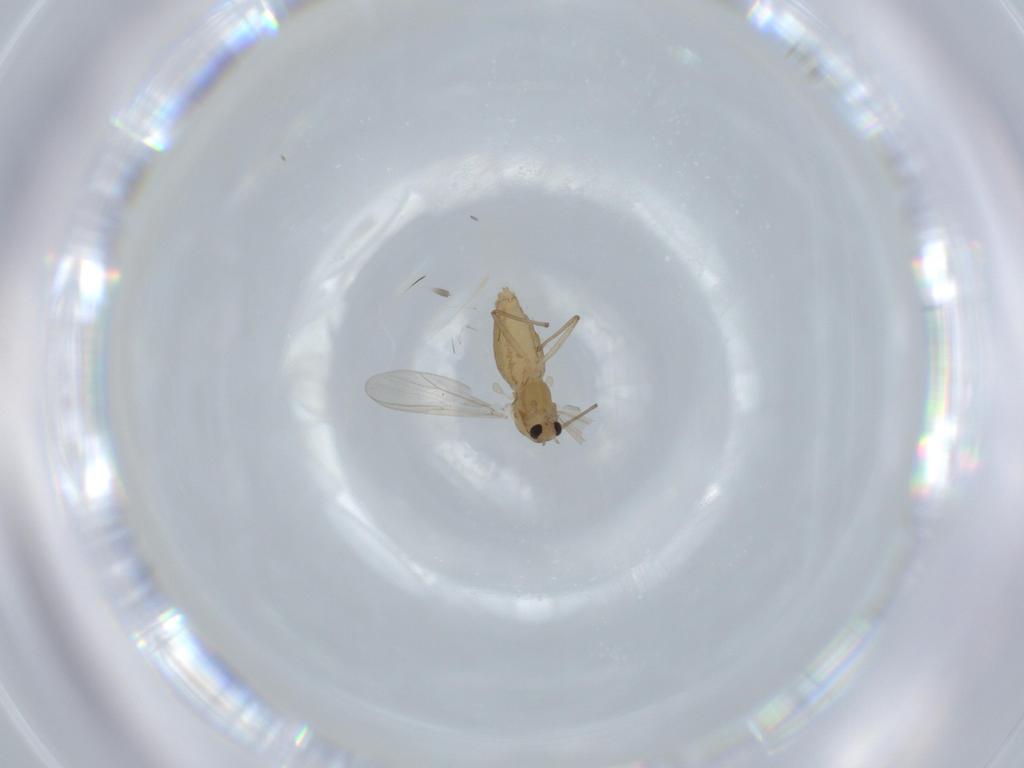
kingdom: Animalia
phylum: Arthropoda
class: Insecta
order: Diptera
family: Chironomidae
